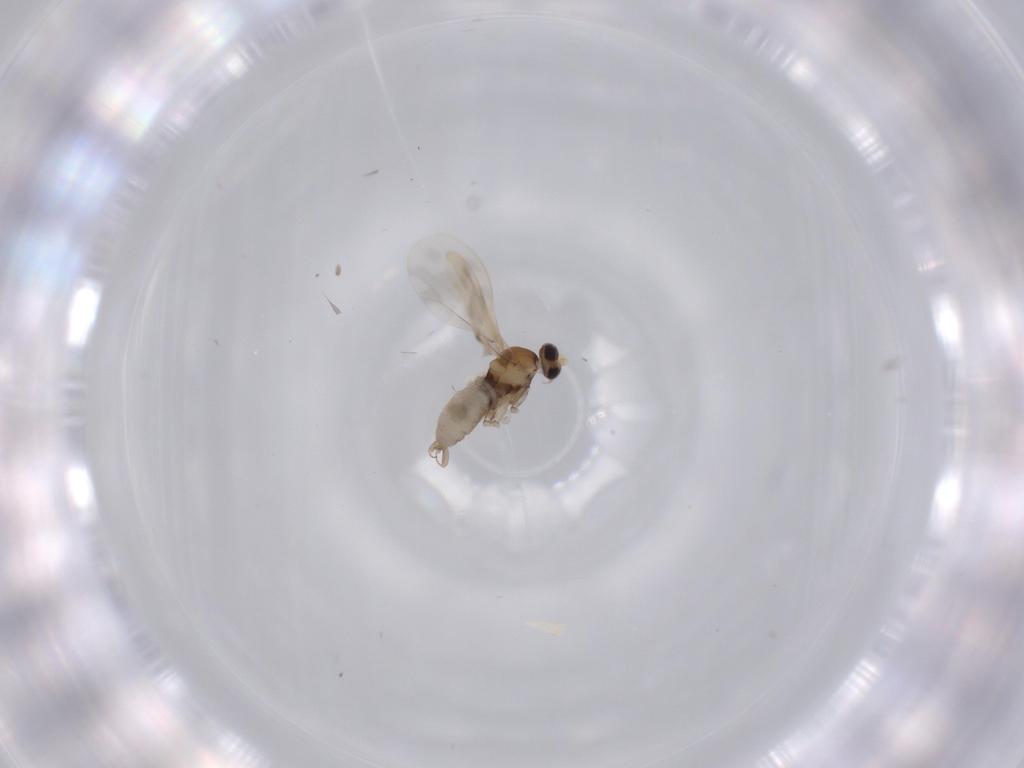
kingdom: Animalia
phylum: Arthropoda
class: Insecta
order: Diptera
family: Cecidomyiidae
